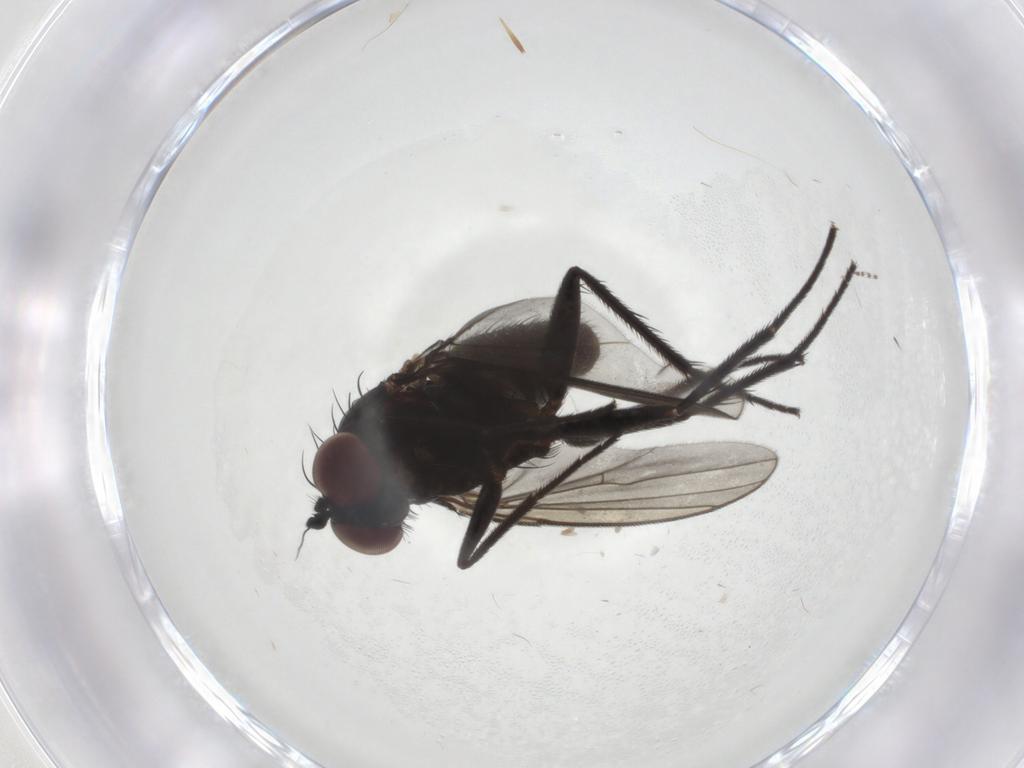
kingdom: Animalia
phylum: Arthropoda
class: Insecta
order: Diptera
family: Dolichopodidae
